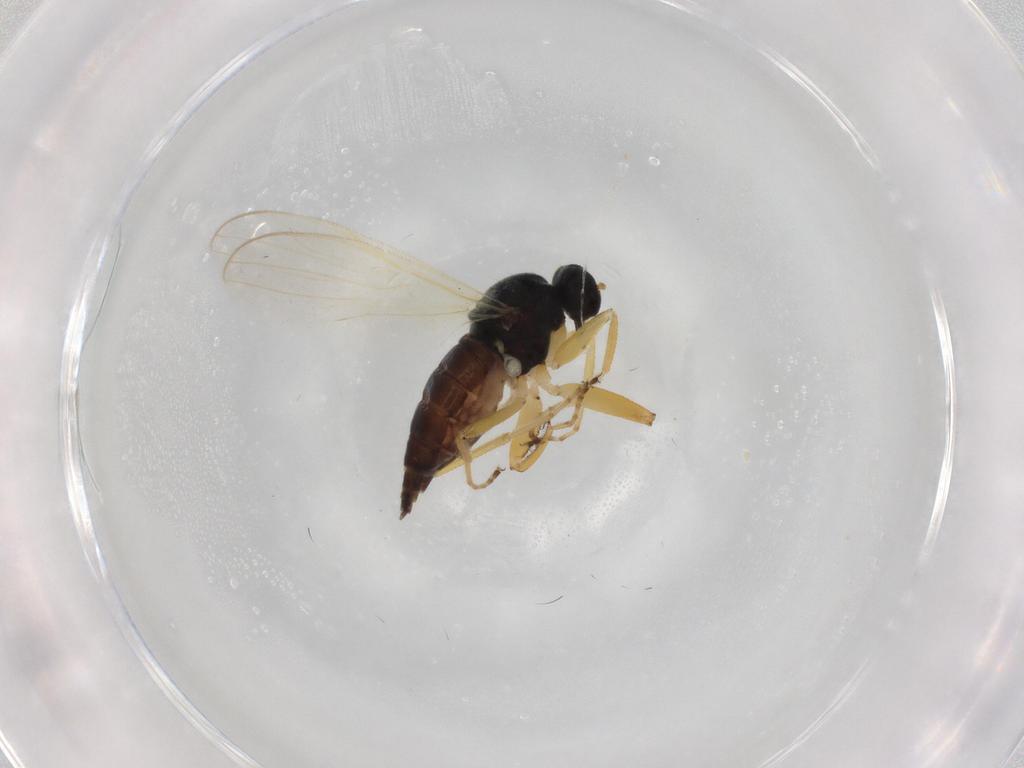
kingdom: Animalia
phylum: Arthropoda
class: Insecta
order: Diptera
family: Hybotidae
